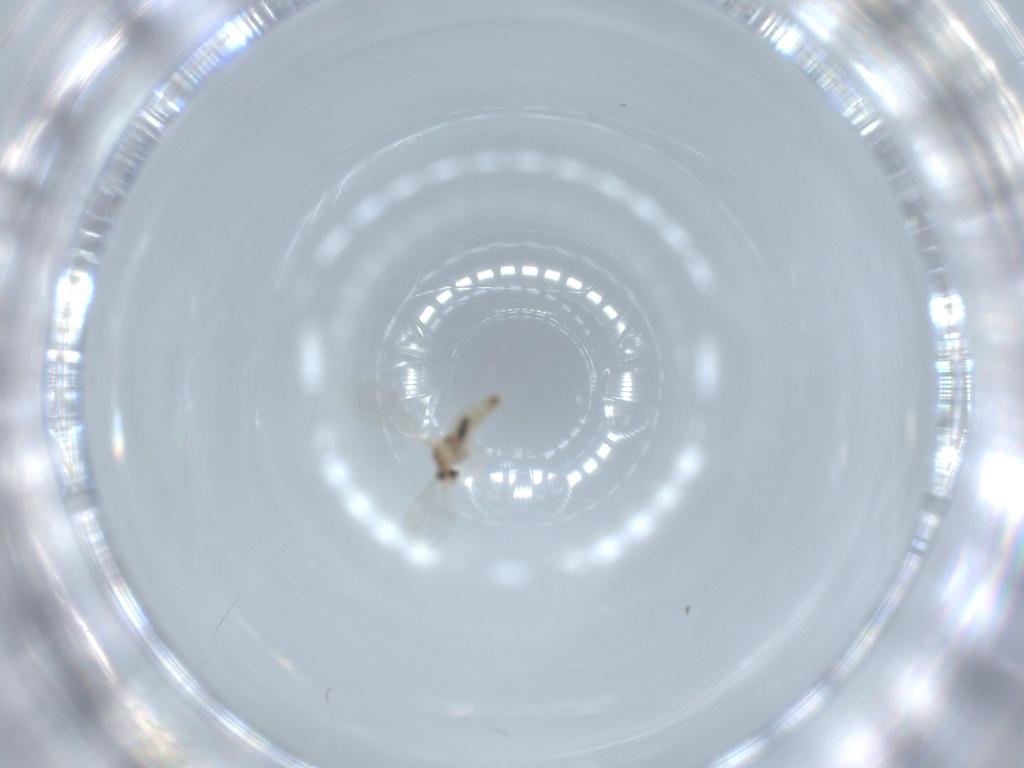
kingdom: Animalia
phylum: Arthropoda
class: Insecta
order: Diptera
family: Cecidomyiidae
